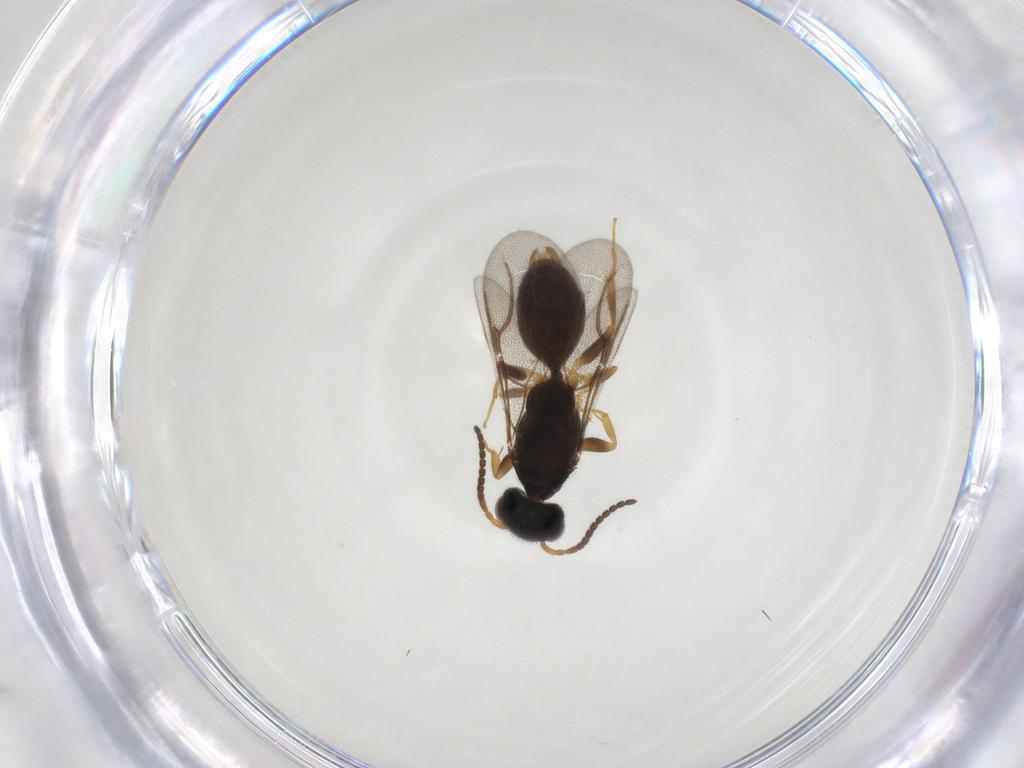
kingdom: Animalia
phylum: Arthropoda
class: Insecta
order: Hymenoptera
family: Bethylidae
